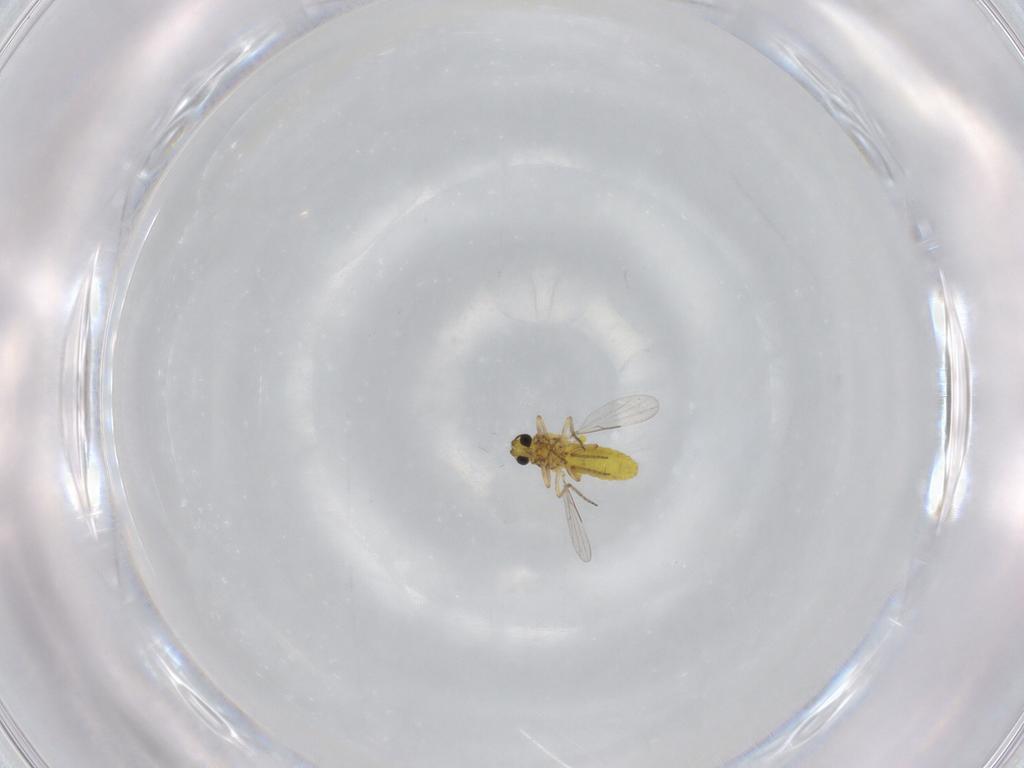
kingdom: Animalia
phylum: Arthropoda
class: Insecta
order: Diptera
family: Ceratopogonidae
